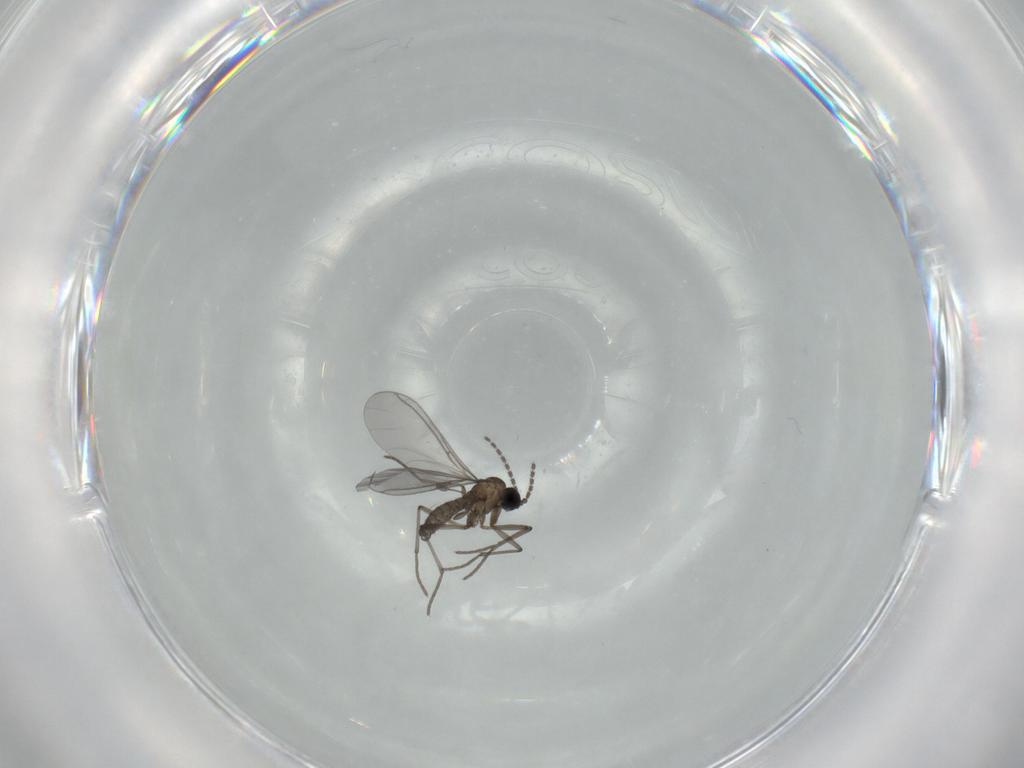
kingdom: Animalia
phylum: Arthropoda
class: Insecta
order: Diptera
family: Sciaridae
